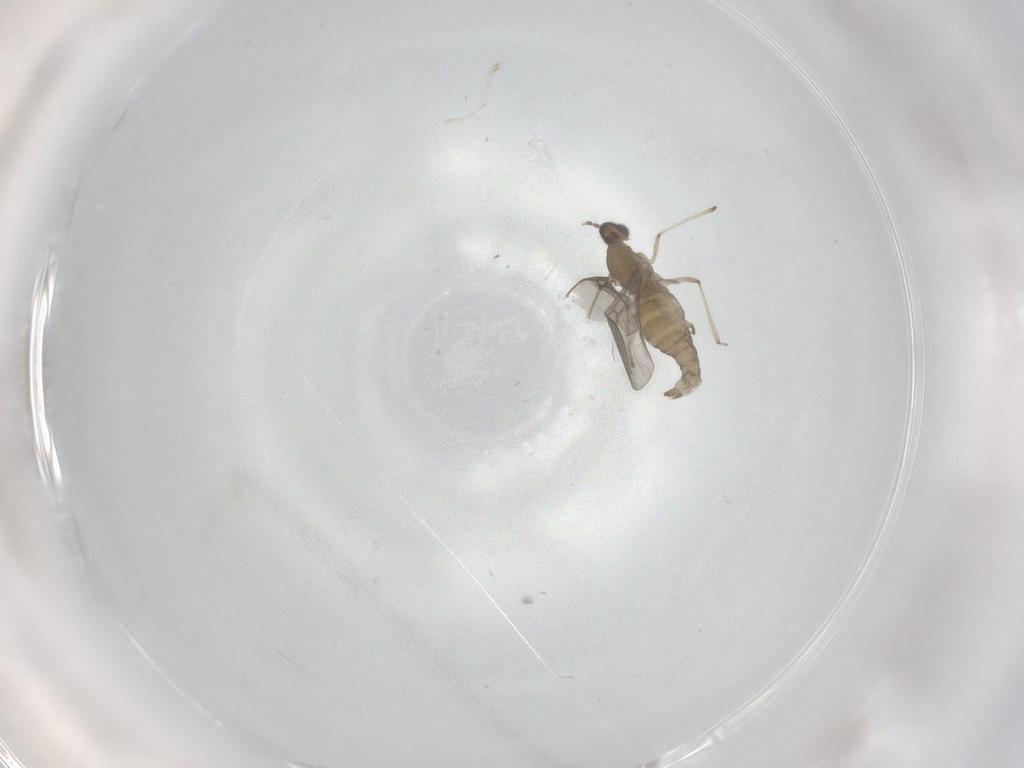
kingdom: Animalia
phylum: Arthropoda
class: Insecta
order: Diptera
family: Cecidomyiidae
